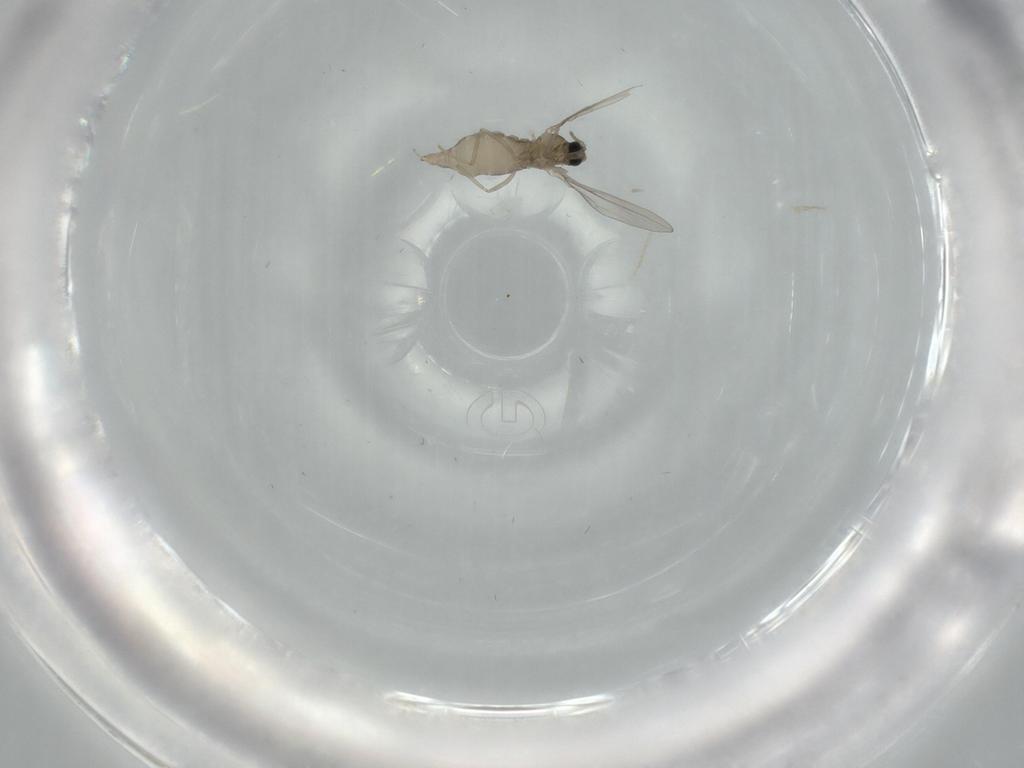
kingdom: Animalia
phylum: Arthropoda
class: Insecta
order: Diptera
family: Cecidomyiidae
